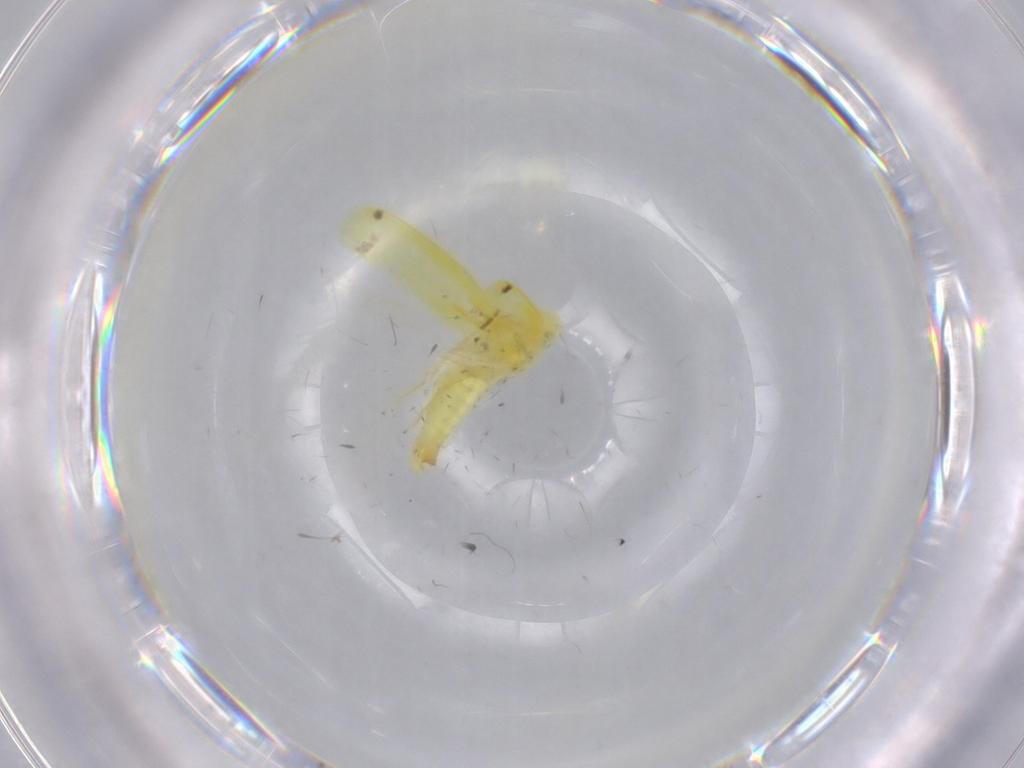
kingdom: Animalia
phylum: Arthropoda
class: Insecta
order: Hemiptera
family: Cicadellidae
